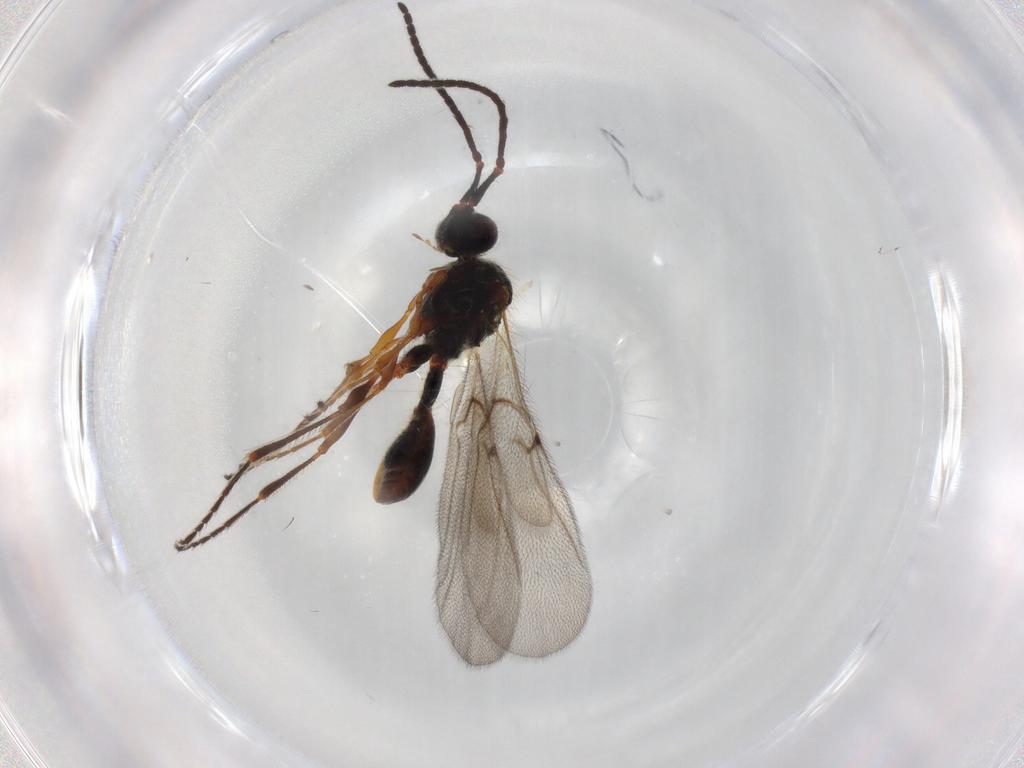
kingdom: Animalia
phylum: Arthropoda
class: Insecta
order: Hymenoptera
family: Diapriidae
